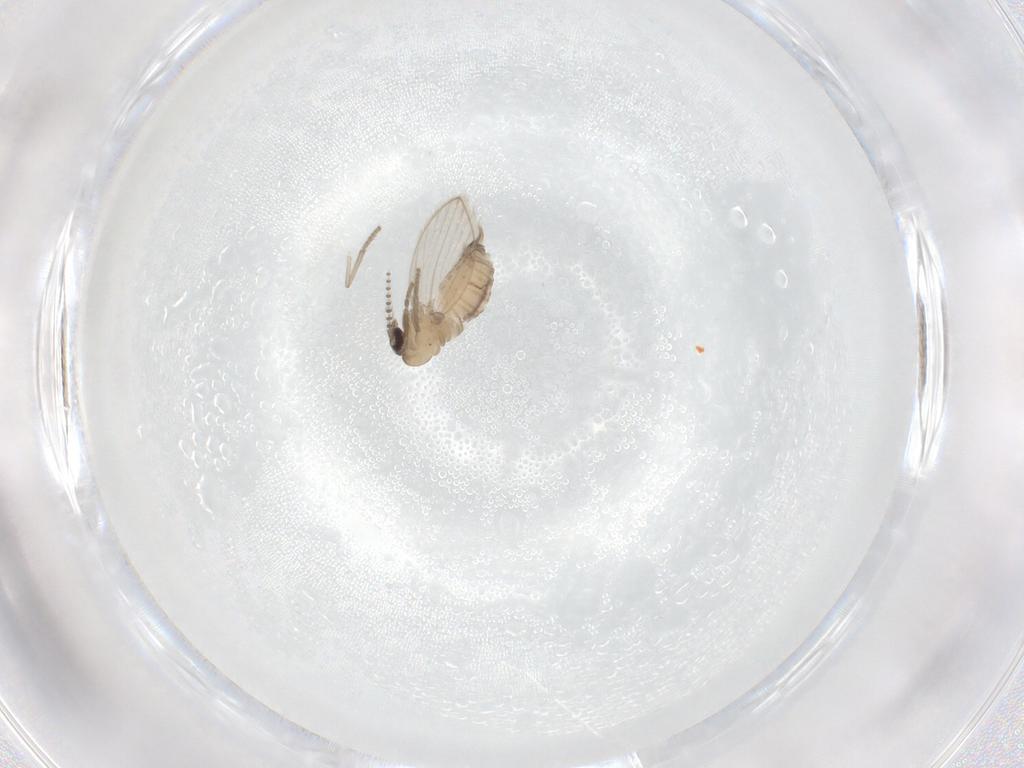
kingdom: Animalia
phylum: Arthropoda
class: Insecta
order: Diptera
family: Psychodidae
